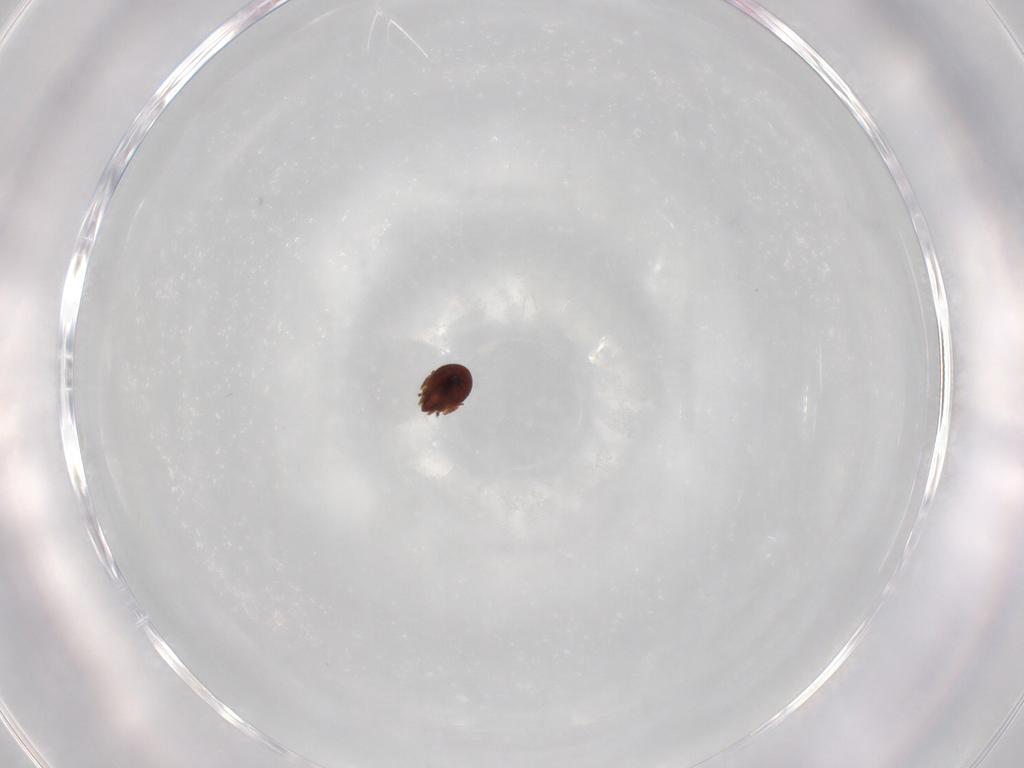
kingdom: Animalia
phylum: Arthropoda
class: Arachnida
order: Sarcoptiformes
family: Phenopelopidae
